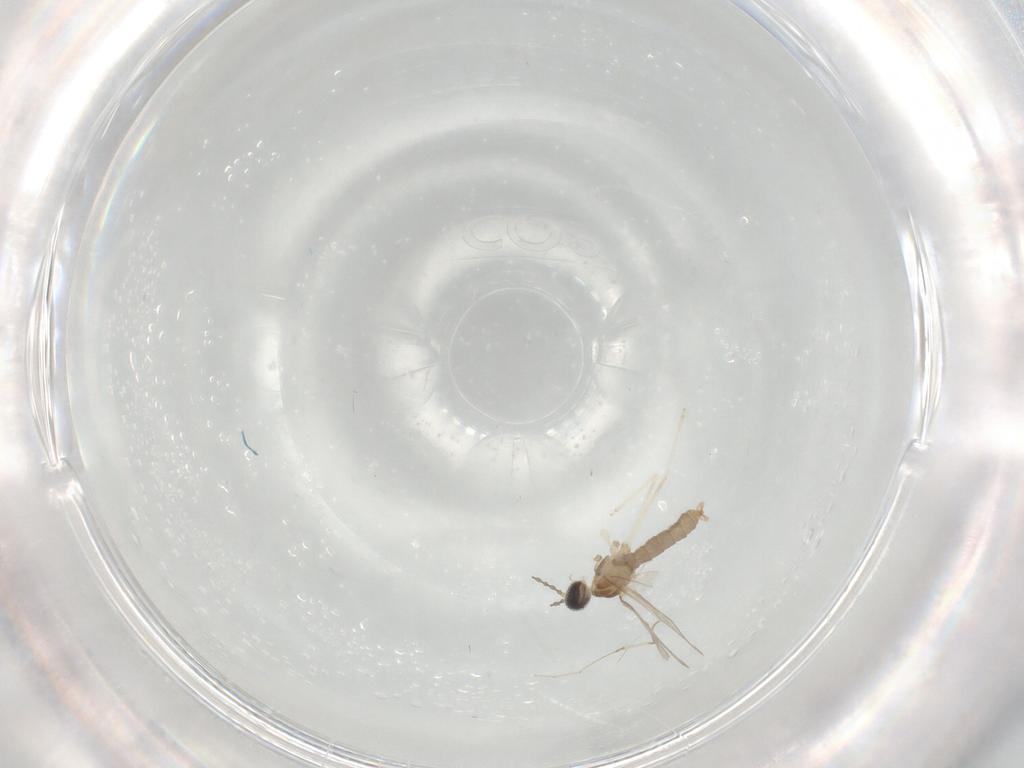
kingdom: Animalia
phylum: Arthropoda
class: Insecta
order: Diptera
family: Cecidomyiidae
